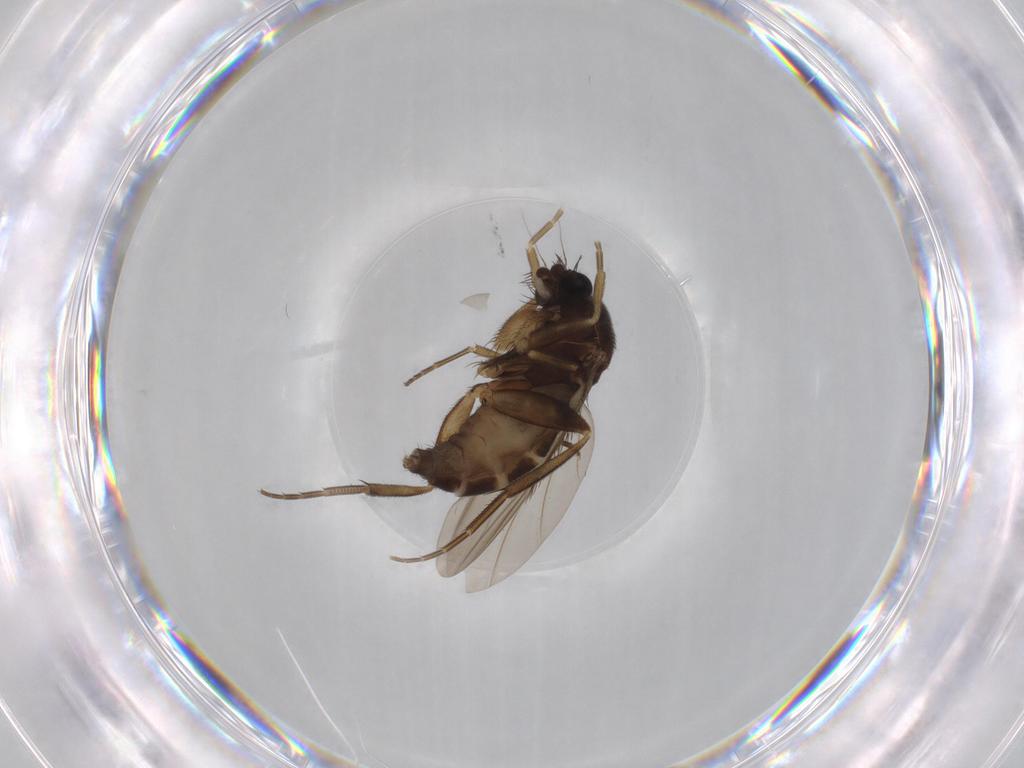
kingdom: Animalia
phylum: Arthropoda
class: Insecta
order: Diptera
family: Phoridae
